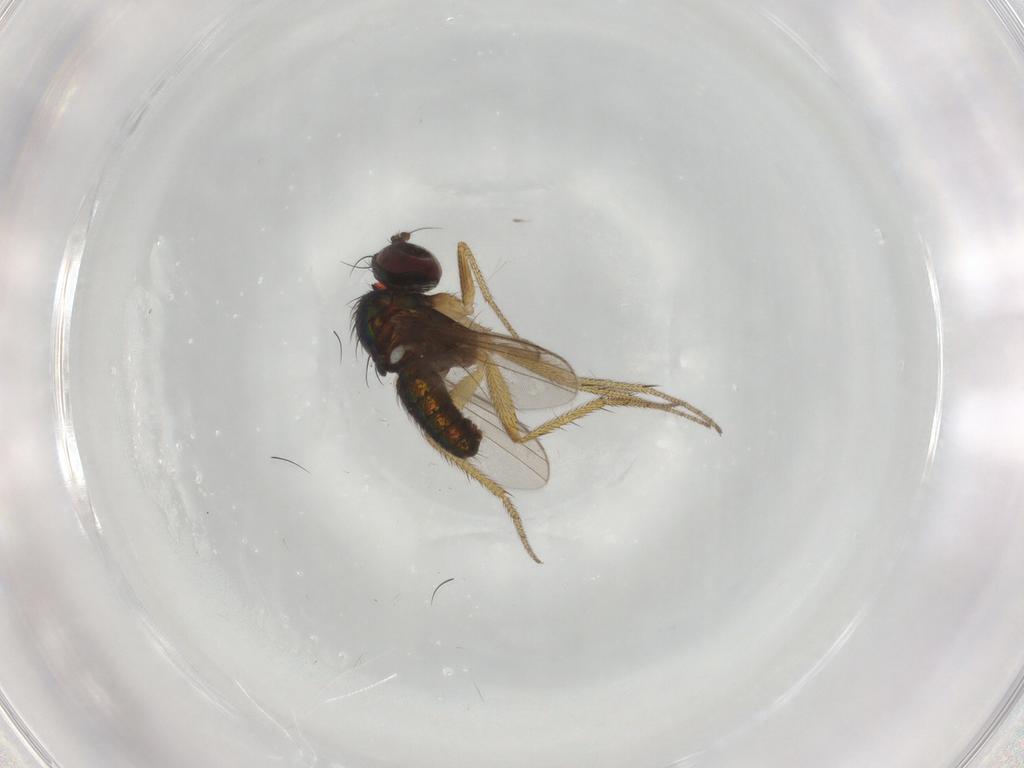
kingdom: Animalia
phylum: Arthropoda
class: Insecta
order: Diptera
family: Dolichopodidae
